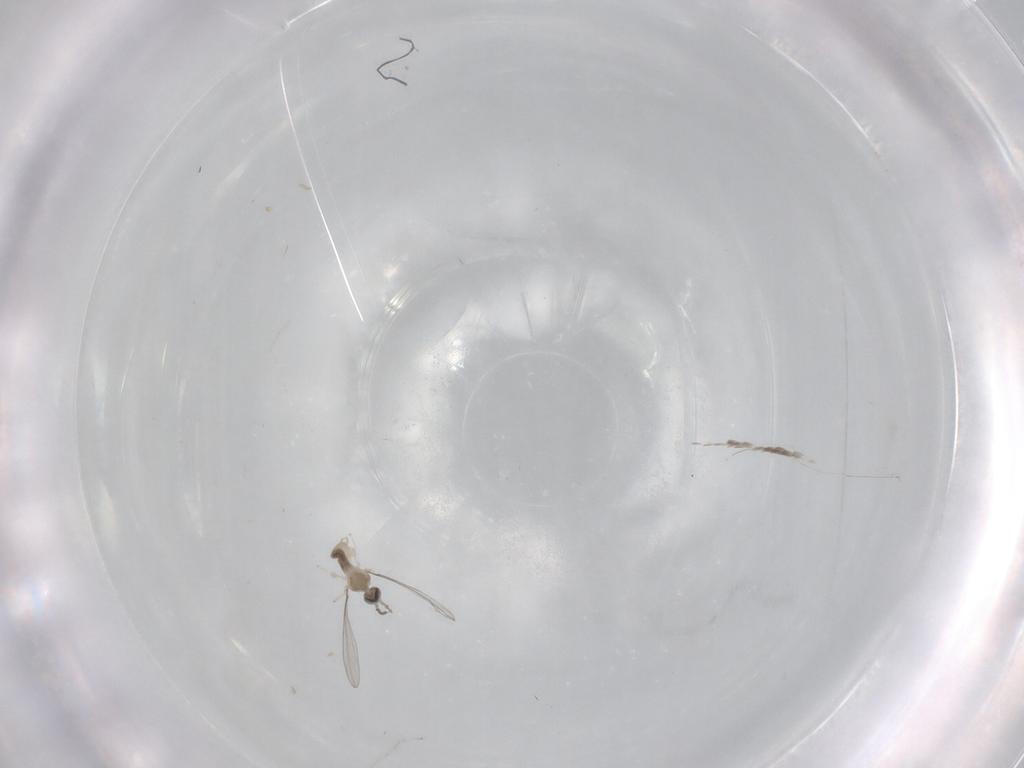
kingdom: Animalia
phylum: Arthropoda
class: Insecta
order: Diptera
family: Cecidomyiidae
